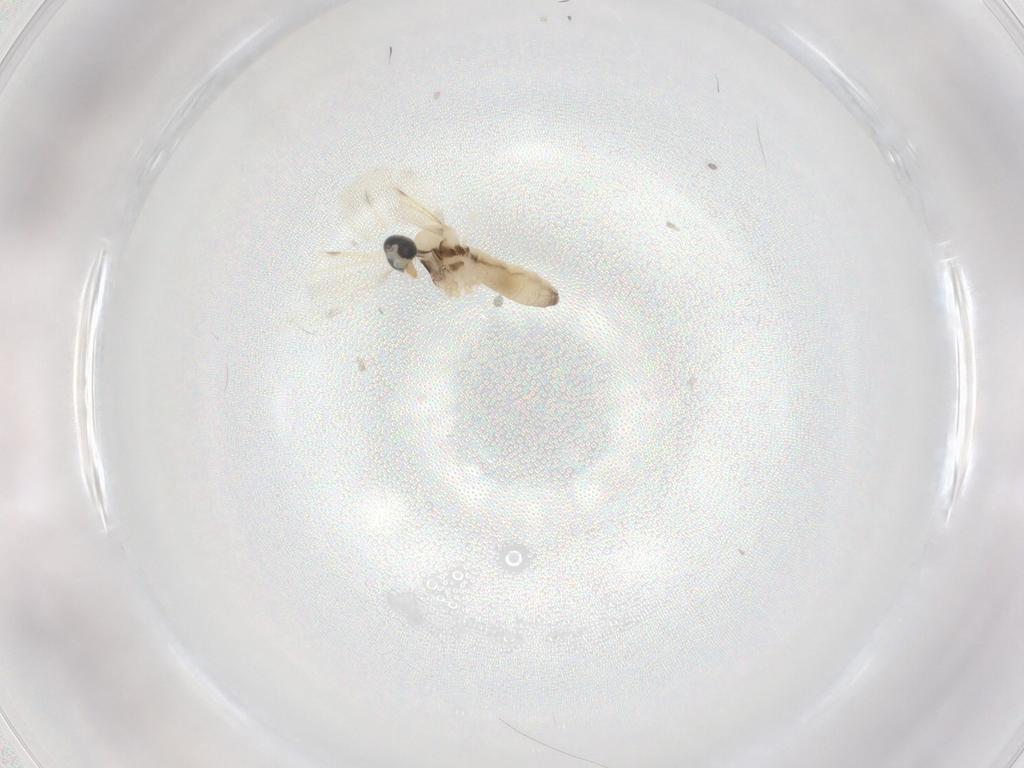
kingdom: Animalia
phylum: Arthropoda
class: Insecta
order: Diptera
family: Cecidomyiidae
